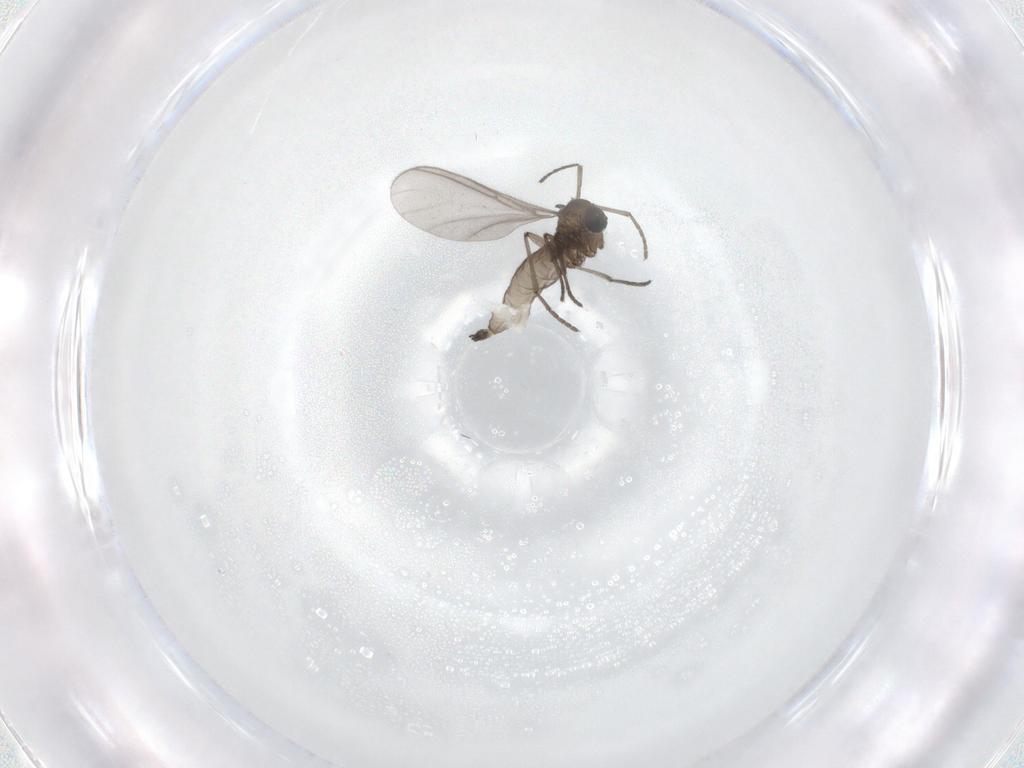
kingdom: Animalia
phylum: Arthropoda
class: Insecta
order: Diptera
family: Sciaridae
